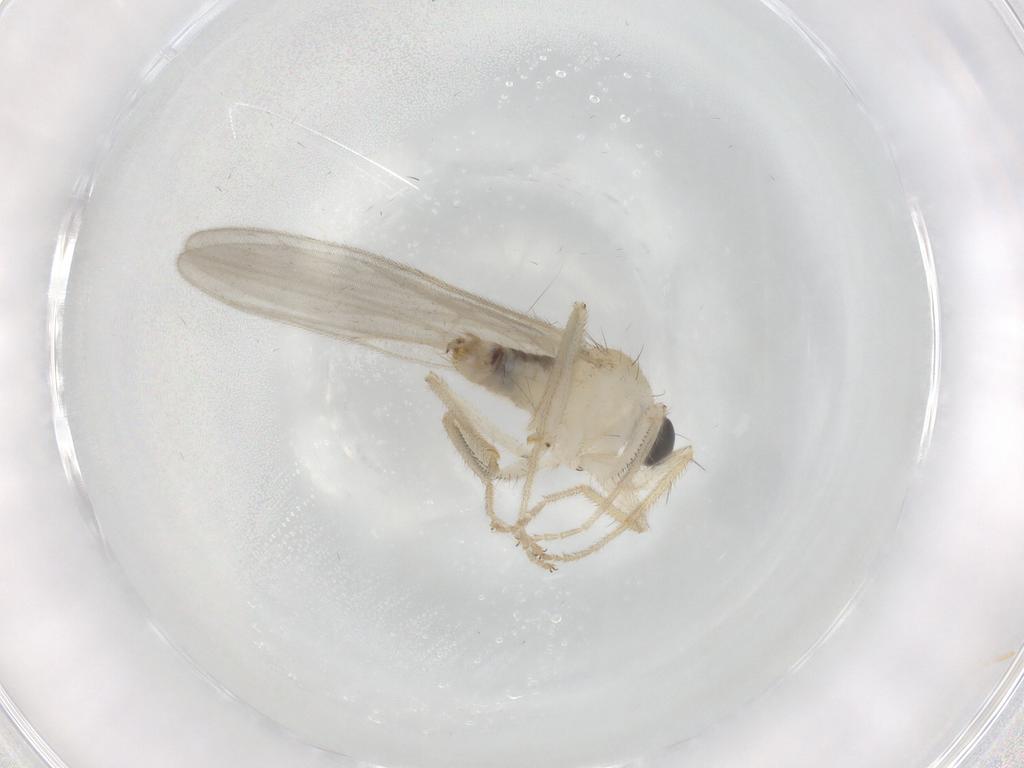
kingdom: Animalia
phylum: Arthropoda
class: Insecta
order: Diptera
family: Hybotidae
